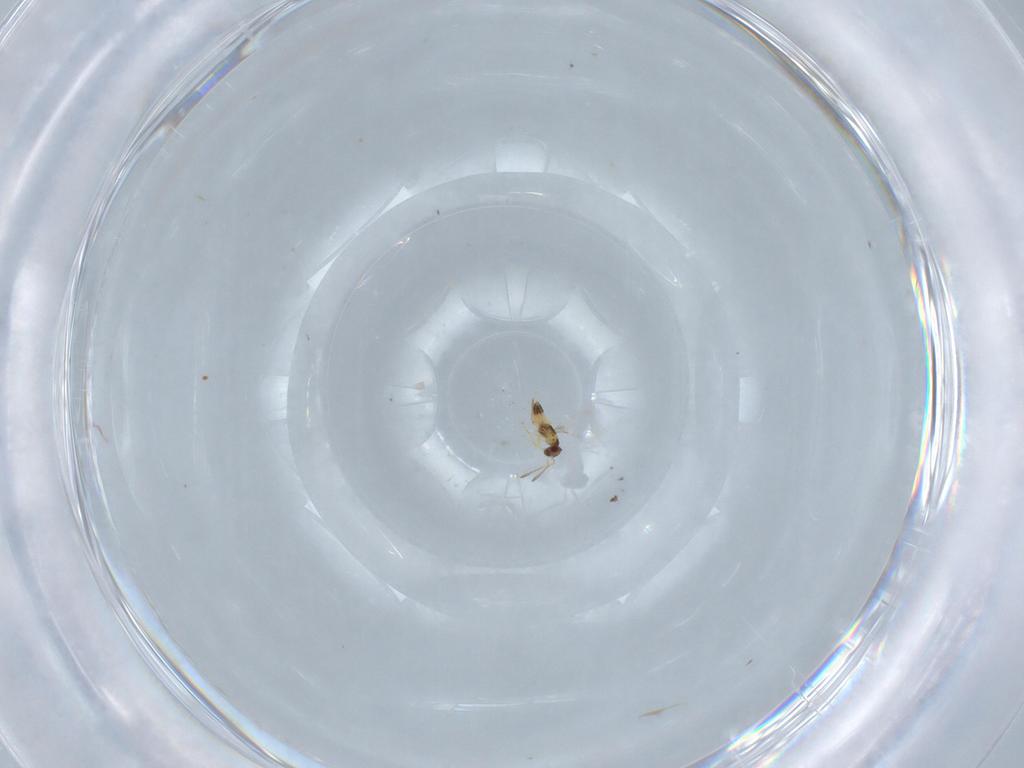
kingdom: Animalia
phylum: Arthropoda
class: Insecta
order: Hymenoptera
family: Mymaridae
